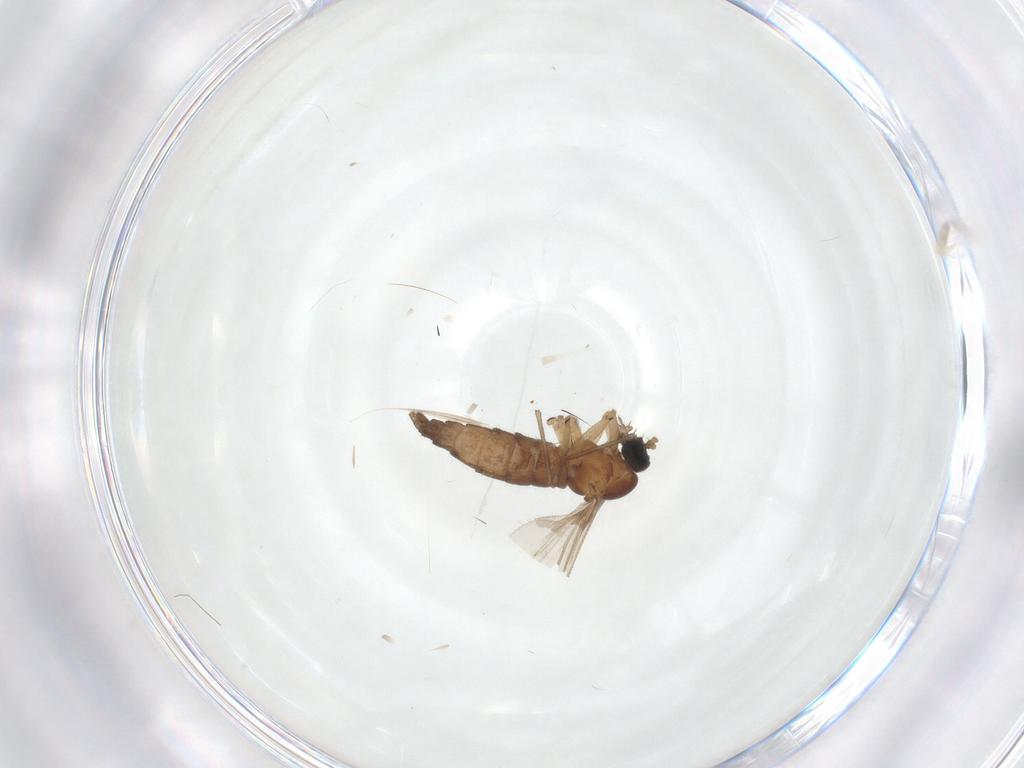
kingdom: Animalia
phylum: Arthropoda
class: Insecta
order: Diptera
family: Sciaridae
